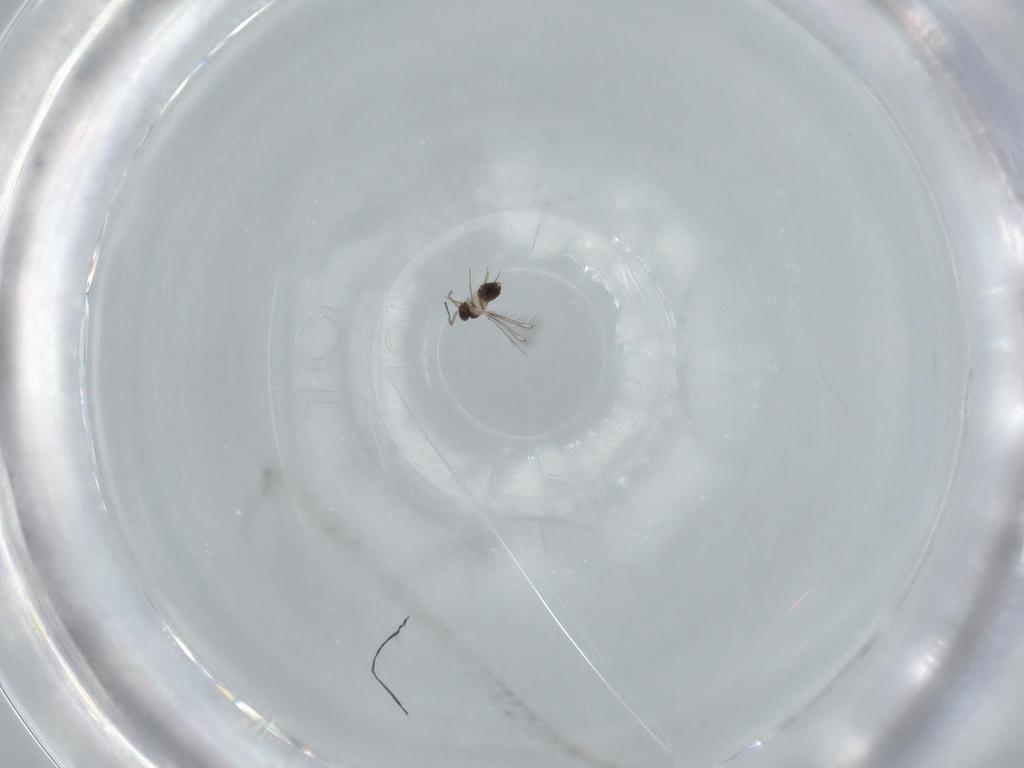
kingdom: Animalia
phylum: Arthropoda
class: Insecta
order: Hymenoptera
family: Mymaridae
